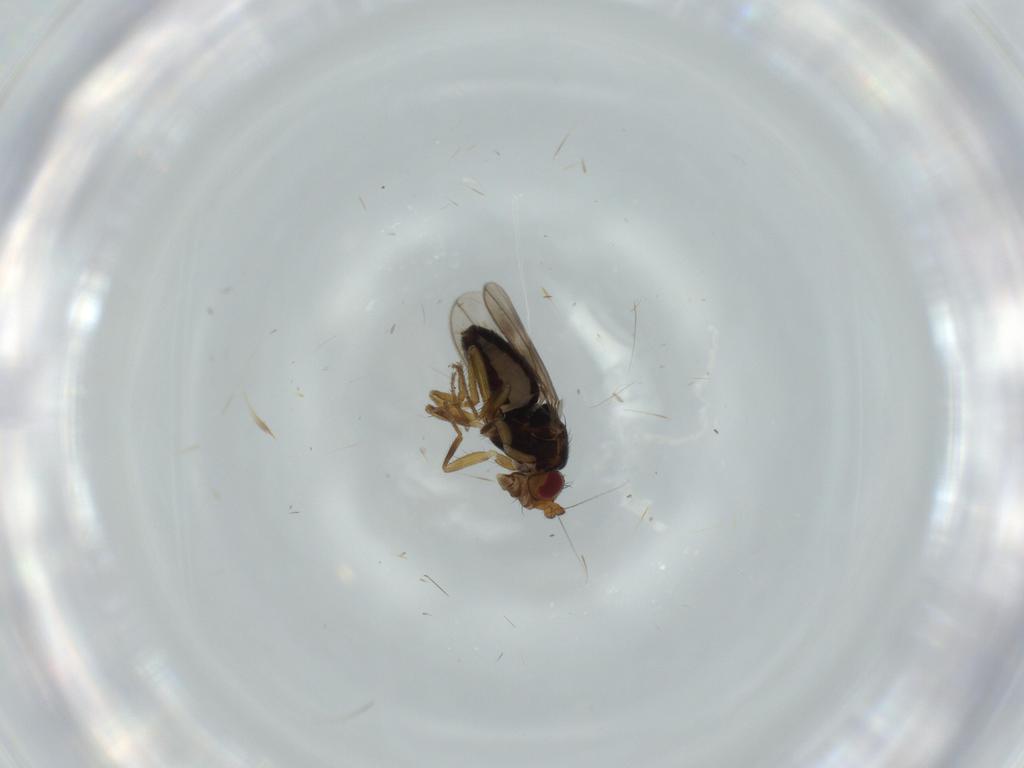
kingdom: Animalia
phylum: Arthropoda
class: Insecta
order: Diptera
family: Sphaeroceridae
